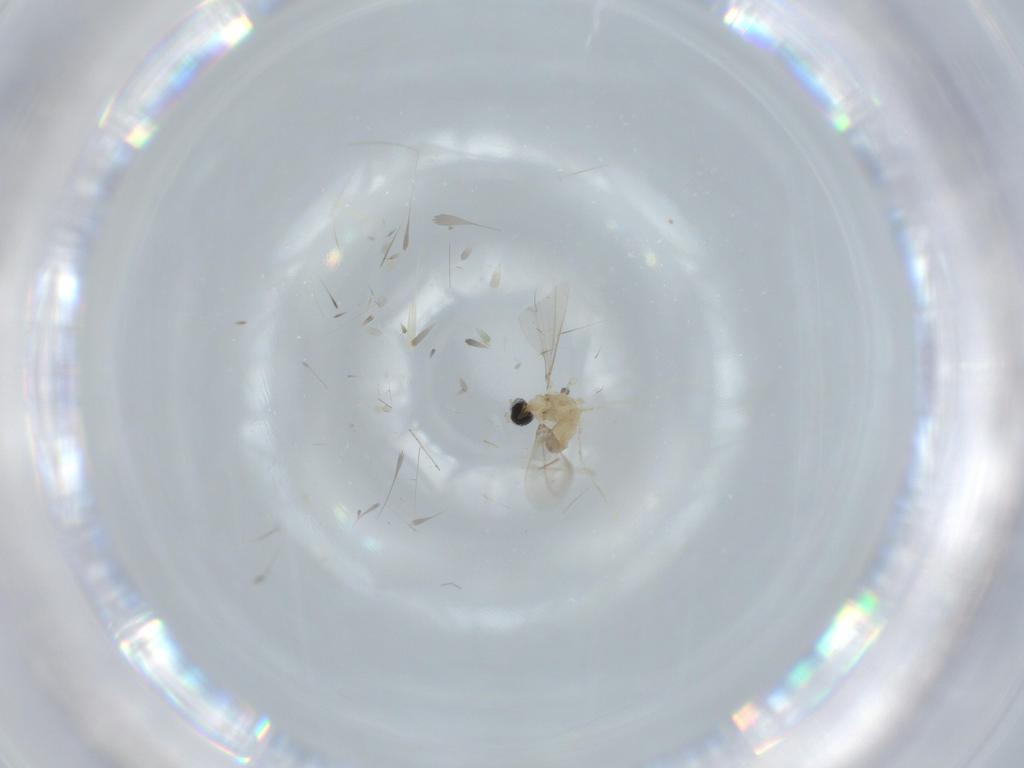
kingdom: Animalia
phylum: Arthropoda
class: Insecta
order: Diptera
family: Cecidomyiidae
